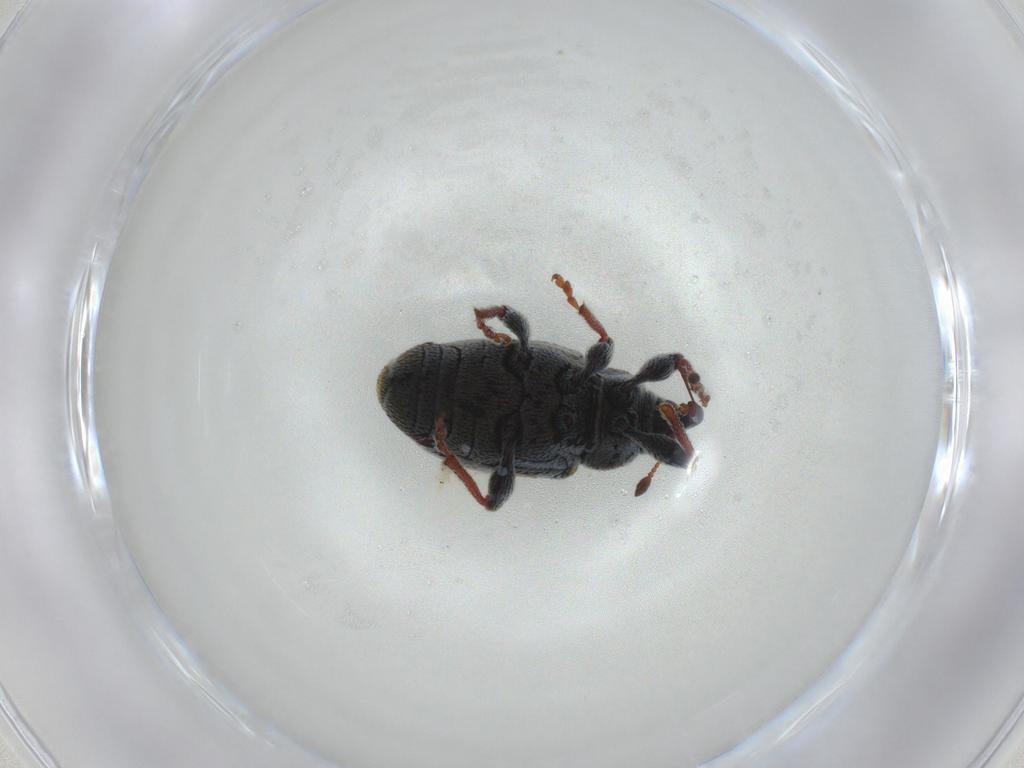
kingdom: Animalia
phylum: Arthropoda
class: Insecta
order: Coleoptera
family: Curculionidae
